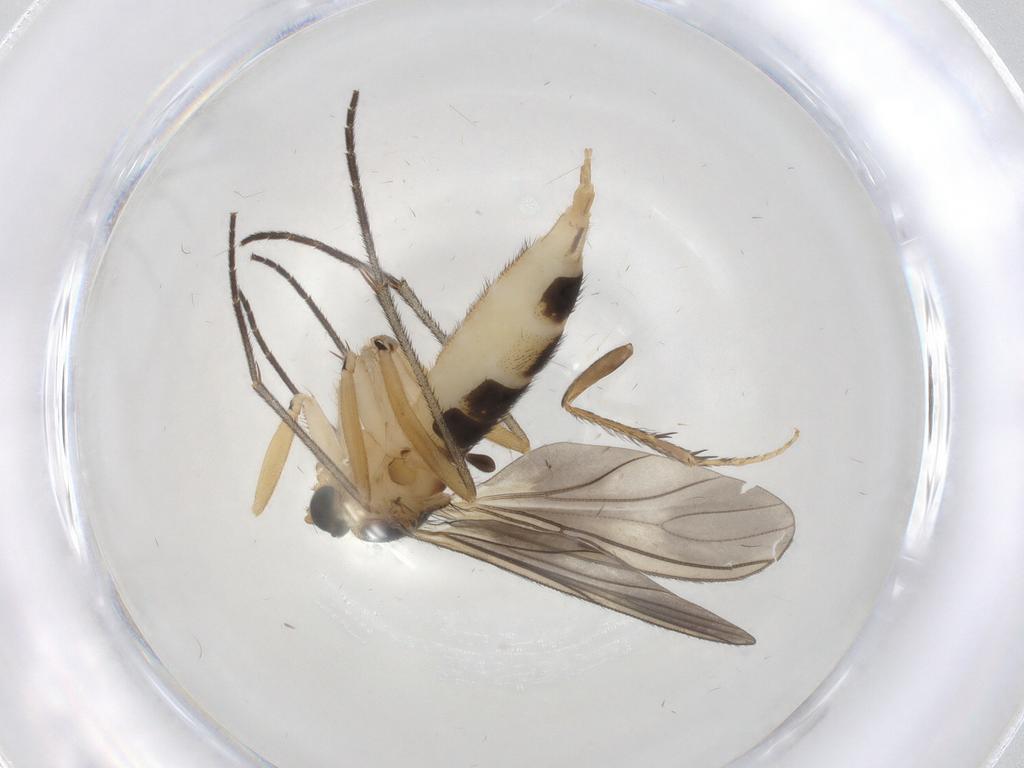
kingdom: Animalia
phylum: Arthropoda
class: Insecta
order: Diptera
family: Sciaridae
